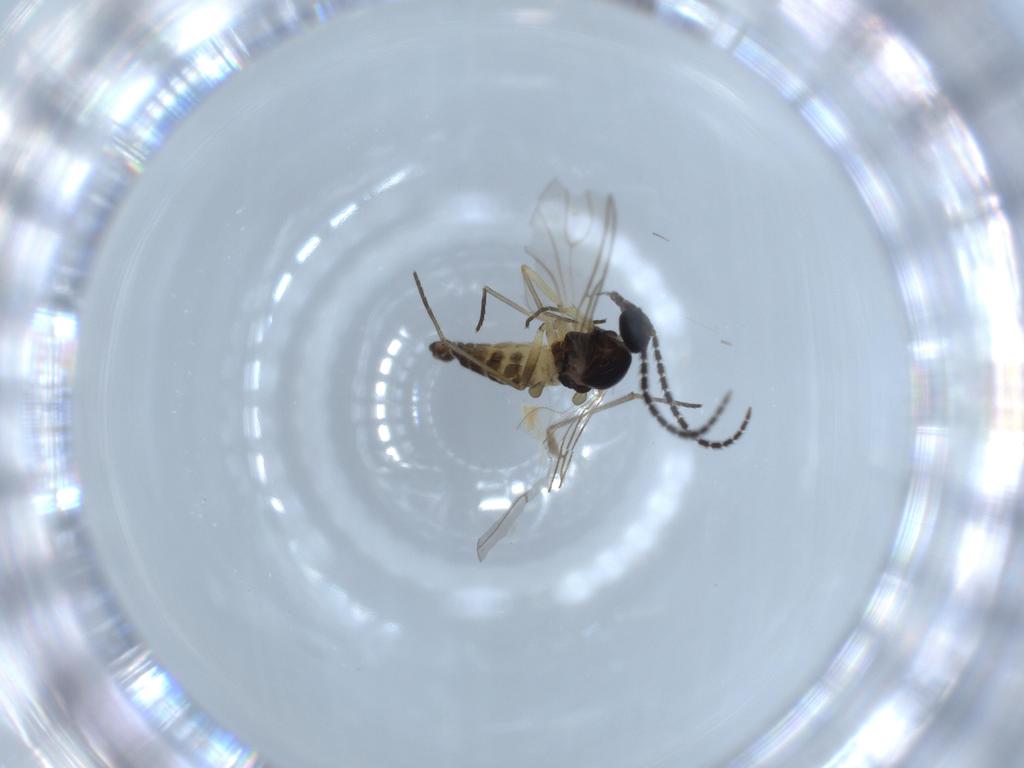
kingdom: Animalia
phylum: Arthropoda
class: Insecta
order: Diptera
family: Sciaridae
